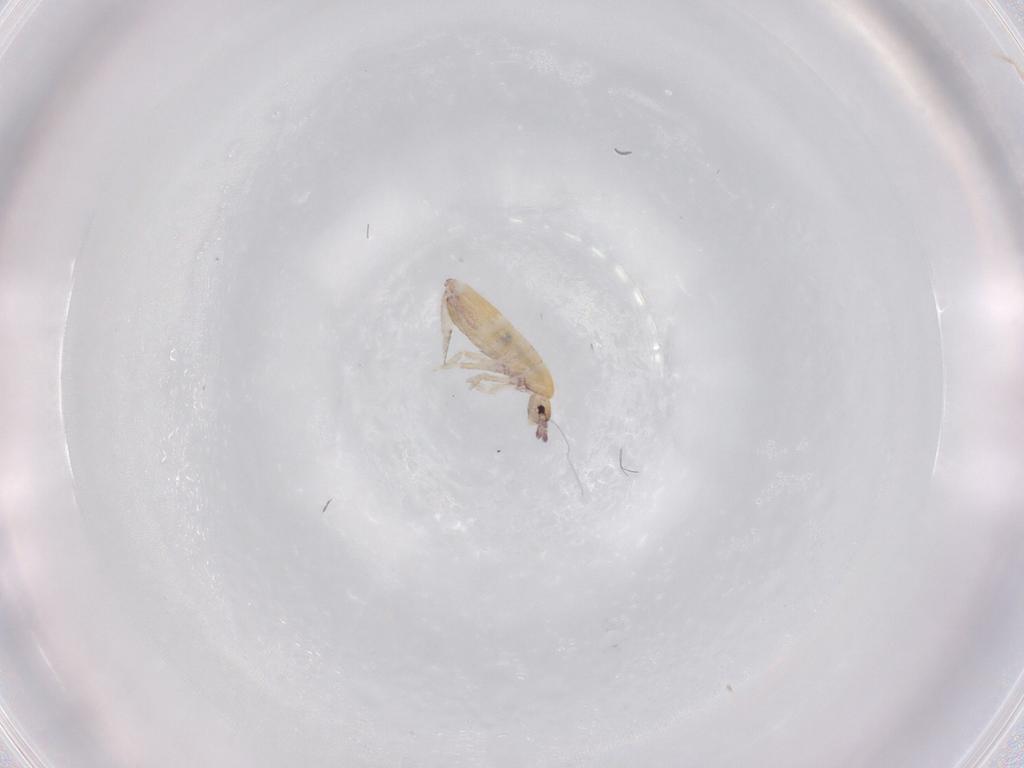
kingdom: Animalia
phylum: Arthropoda
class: Collembola
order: Entomobryomorpha
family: Entomobryidae
